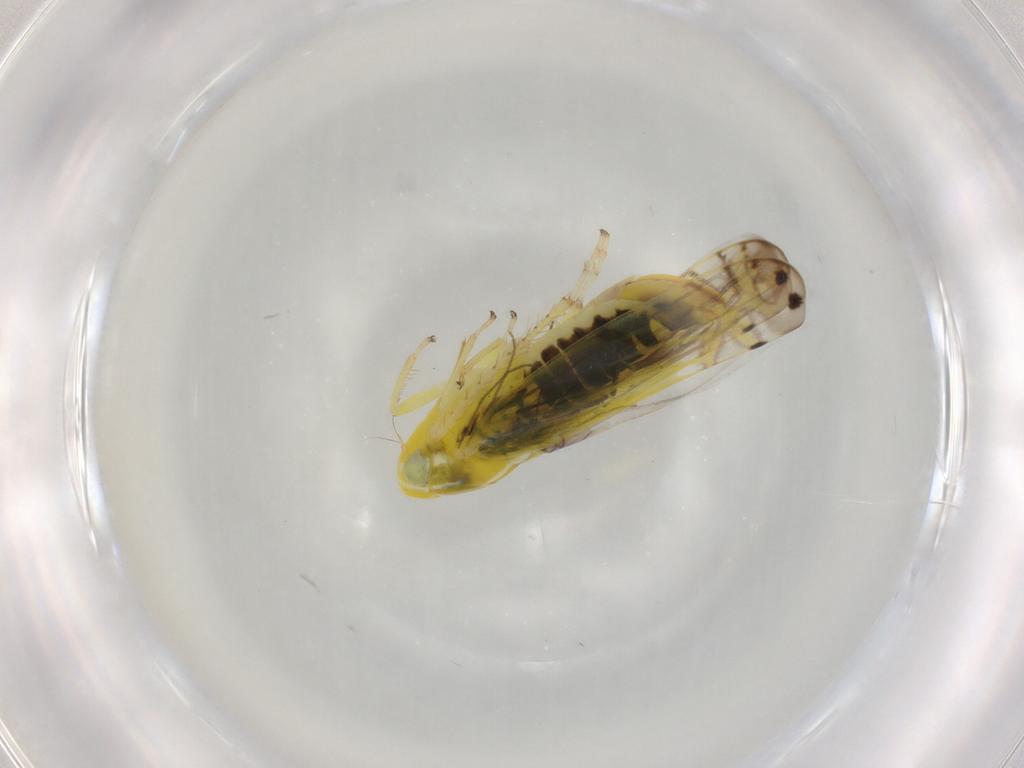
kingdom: Animalia
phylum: Arthropoda
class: Insecta
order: Hemiptera
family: Cicadellidae
